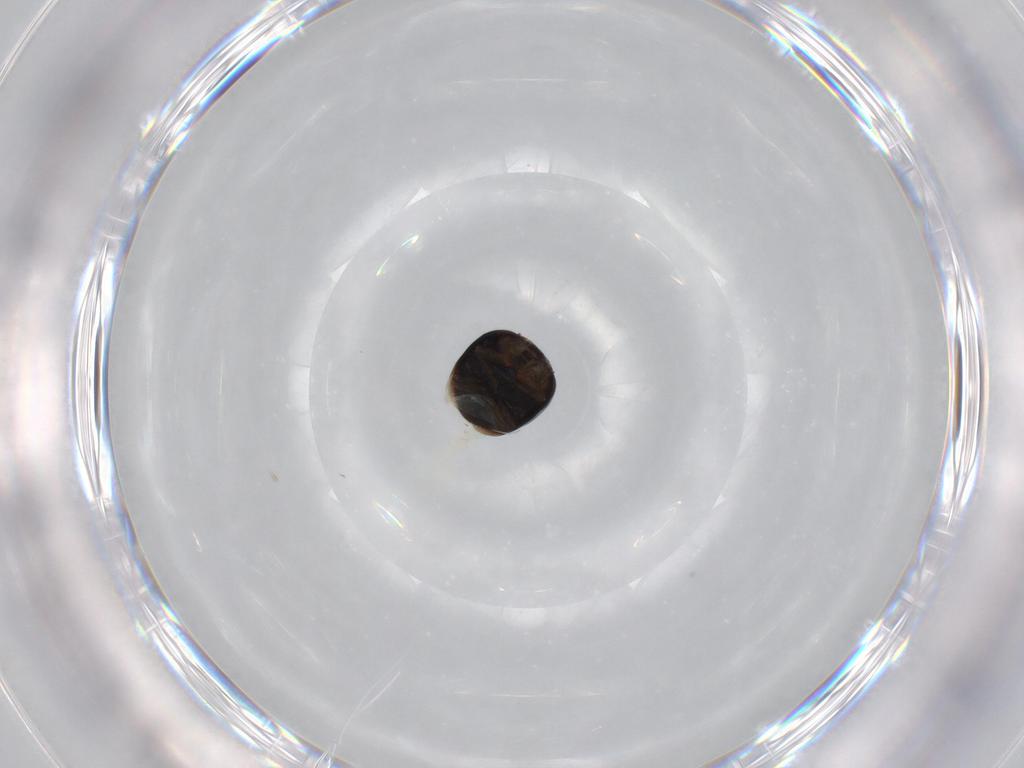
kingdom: Animalia
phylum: Arthropoda
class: Insecta
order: Coleoptera
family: Cybocephalidae
